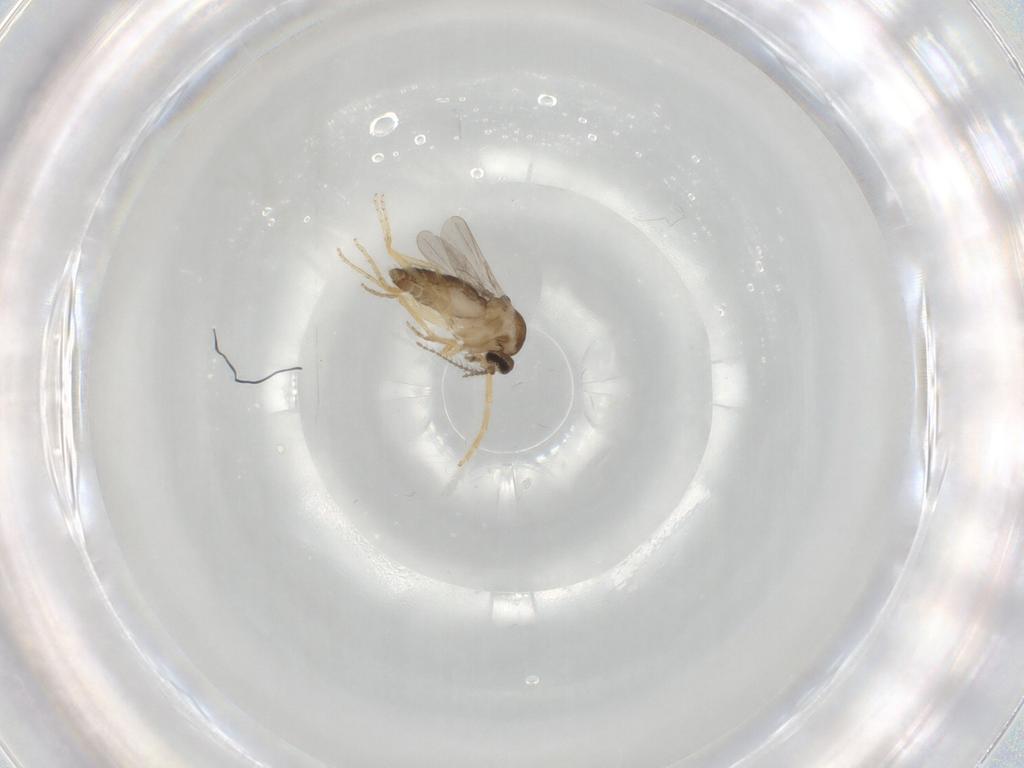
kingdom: Animalia
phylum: Arthropoda
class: Insecta
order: Diptera
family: Ceratopogonidae
